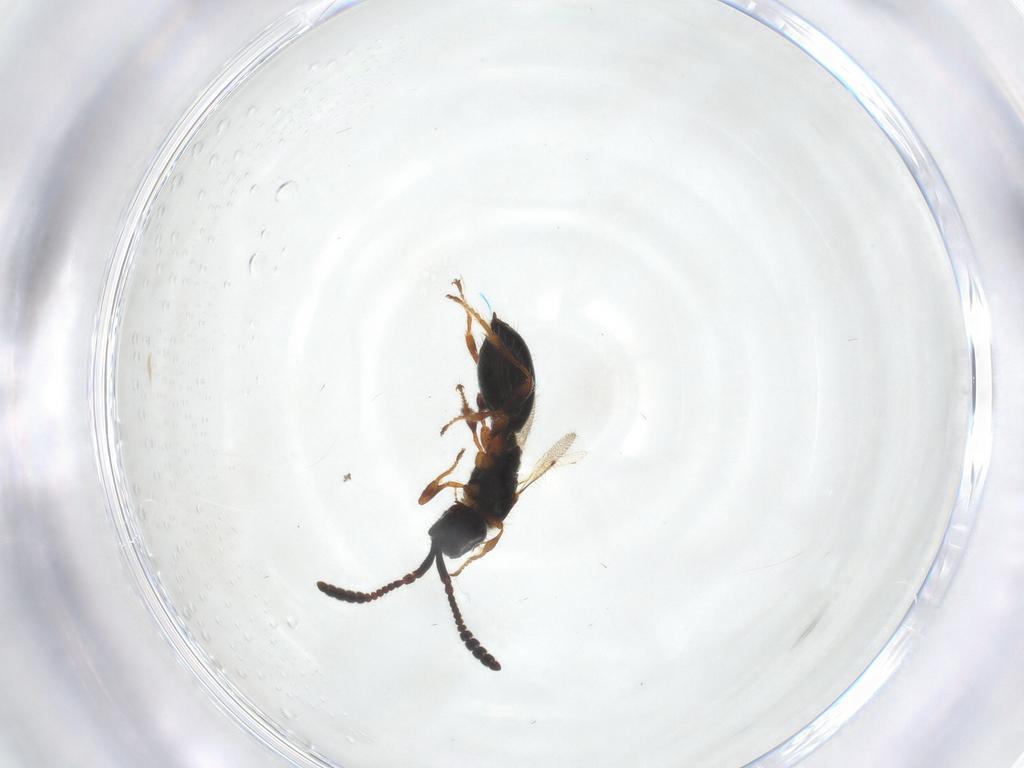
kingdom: Animalia
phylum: Arthropoda
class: Insecta
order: Hymenoptera
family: Diapriidae
